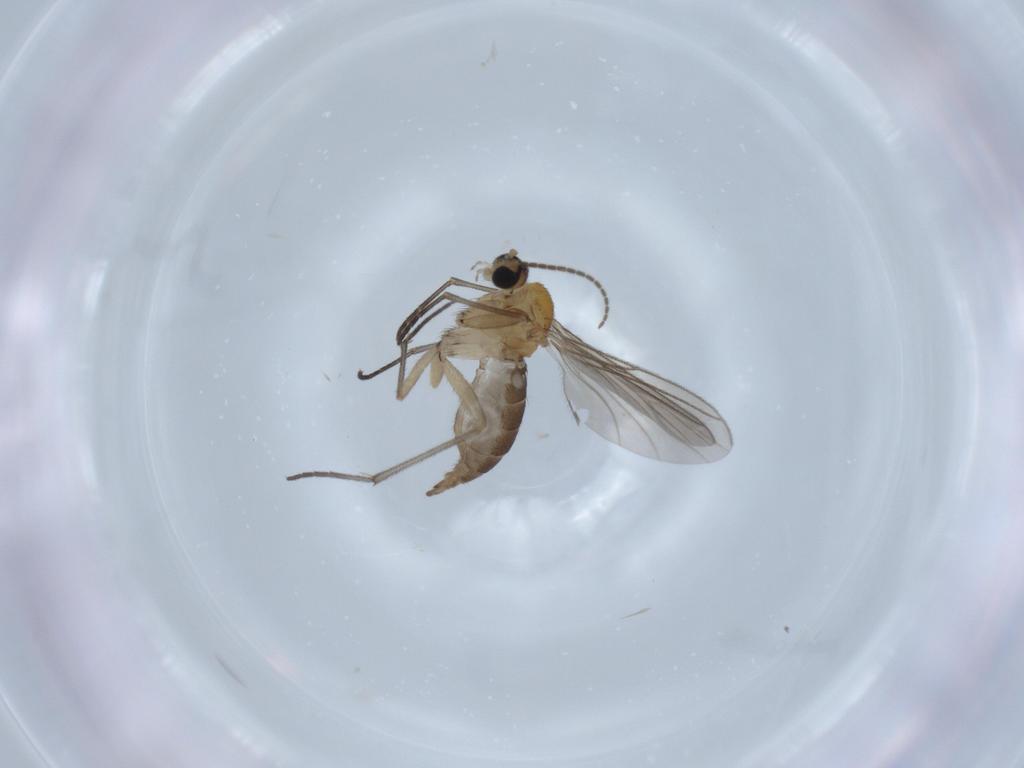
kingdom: Animalia
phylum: Arthropoda
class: Insecta
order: Diptera
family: Sciaridae
